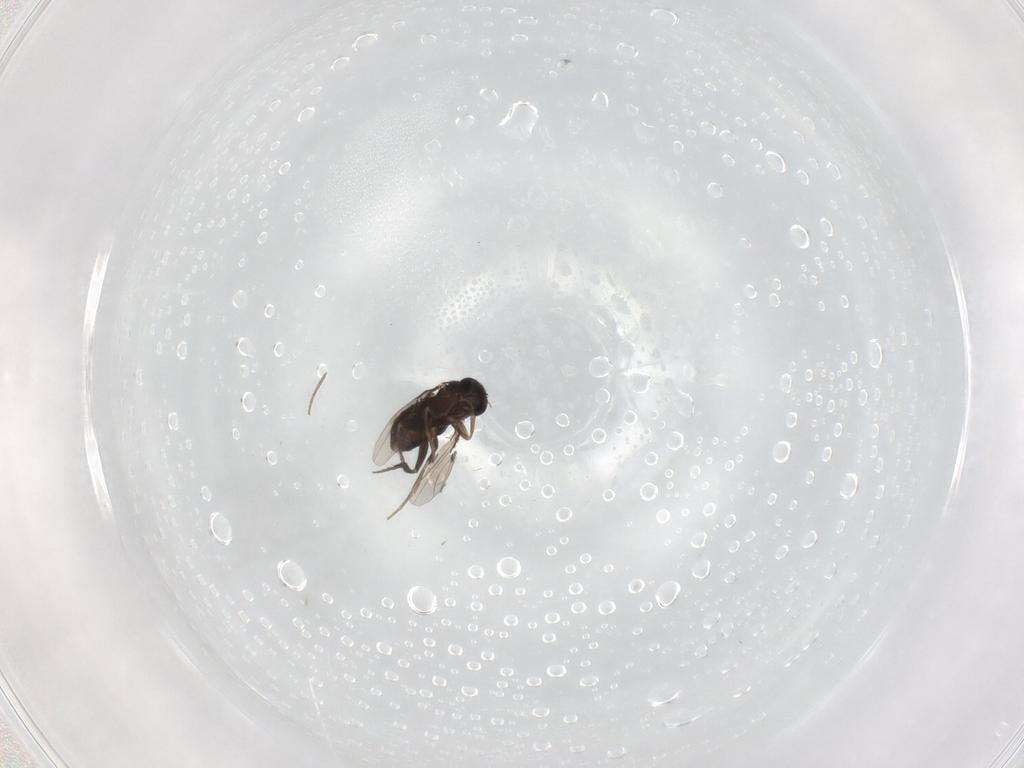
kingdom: Animalia
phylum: Arthropoda
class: Insecta
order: Diptera
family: Phoridae
